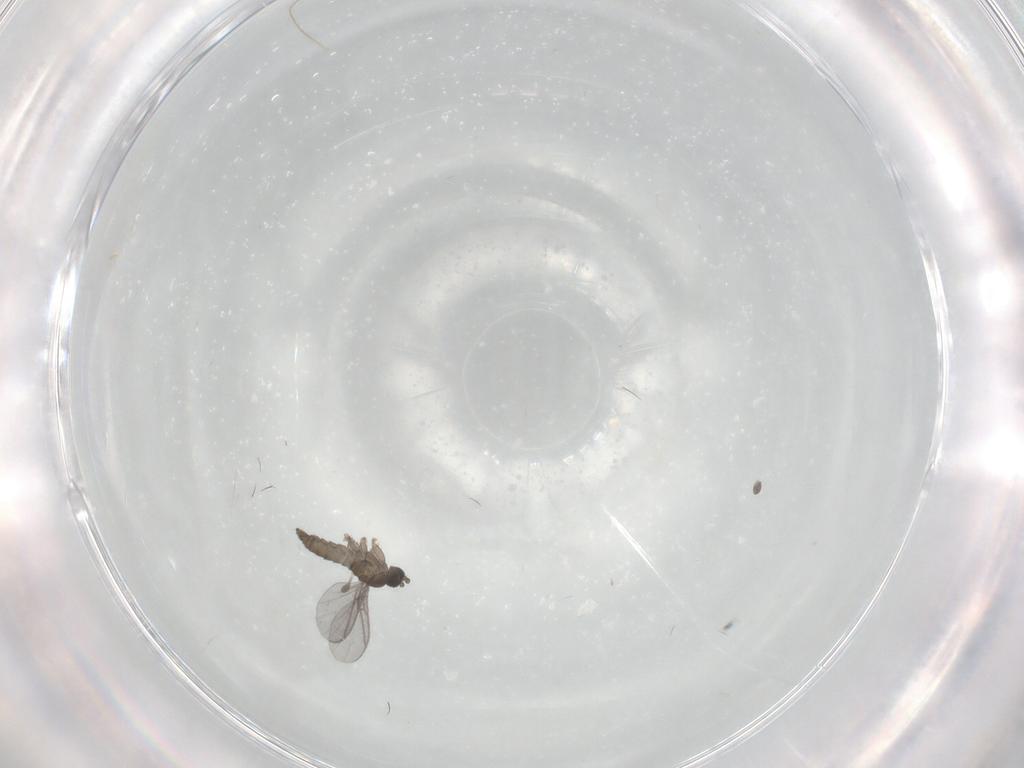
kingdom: Animalia
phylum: Arthropoda
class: Insecta
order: Diptera
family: Sciaridae
